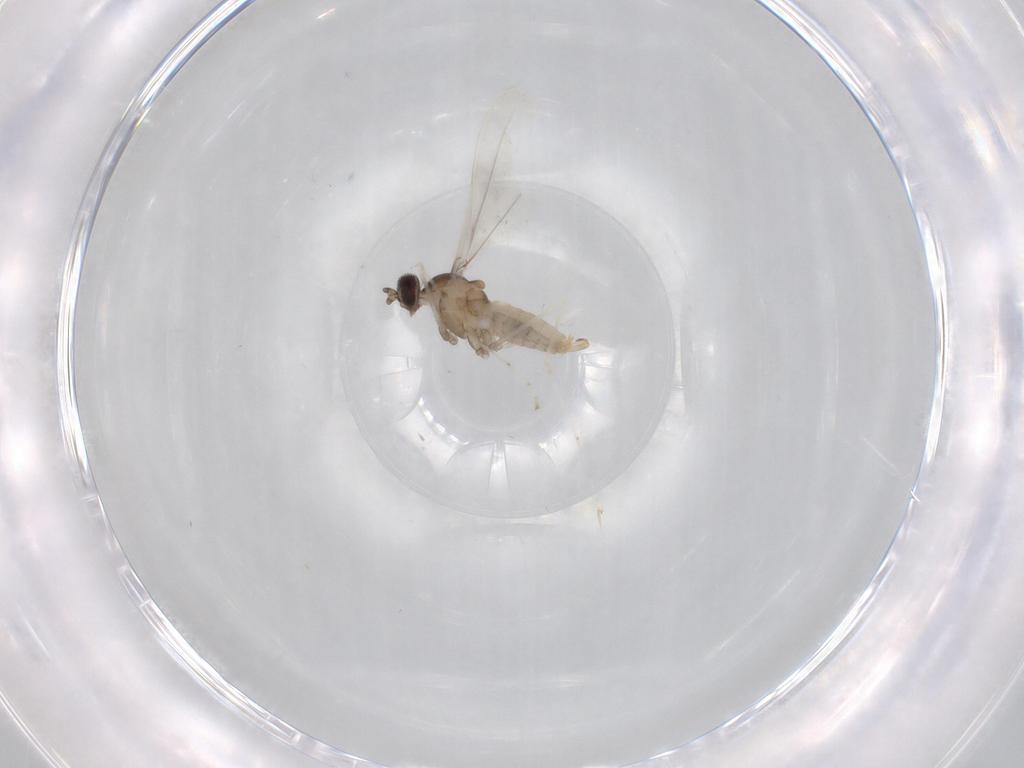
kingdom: Animalia
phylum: Arthropoda
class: Insecta
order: Diptera
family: Cecidomyiidae
